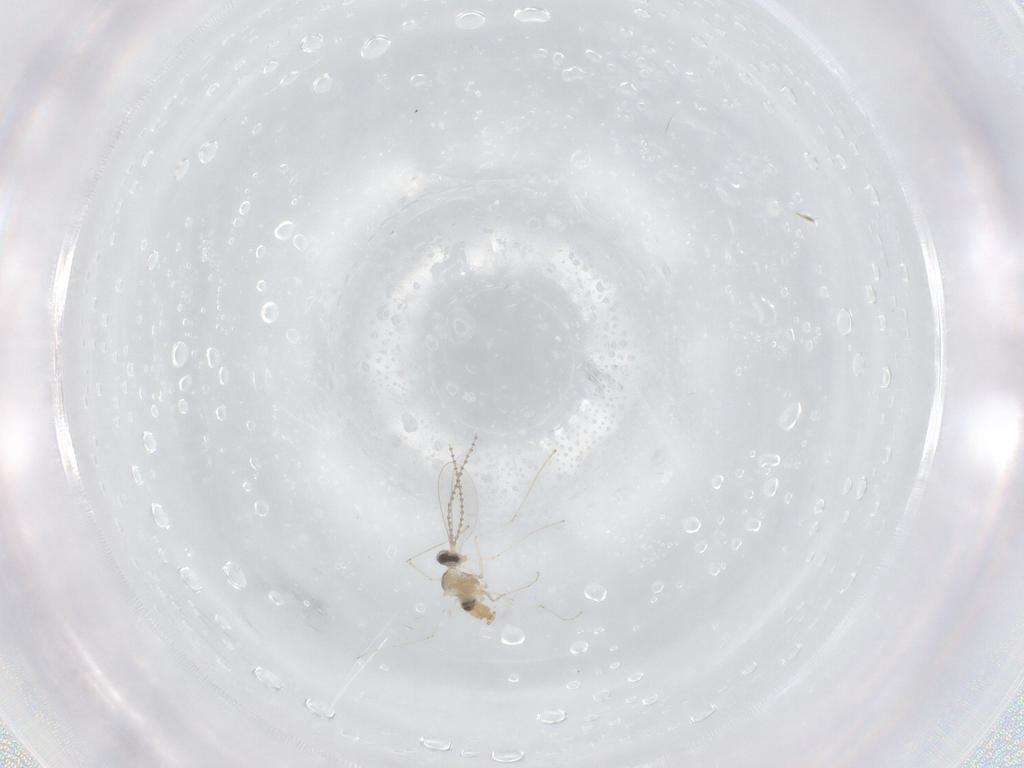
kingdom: Animalia
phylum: Arthropoda
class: Insecta
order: Diptera
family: Cecidomyiidae
